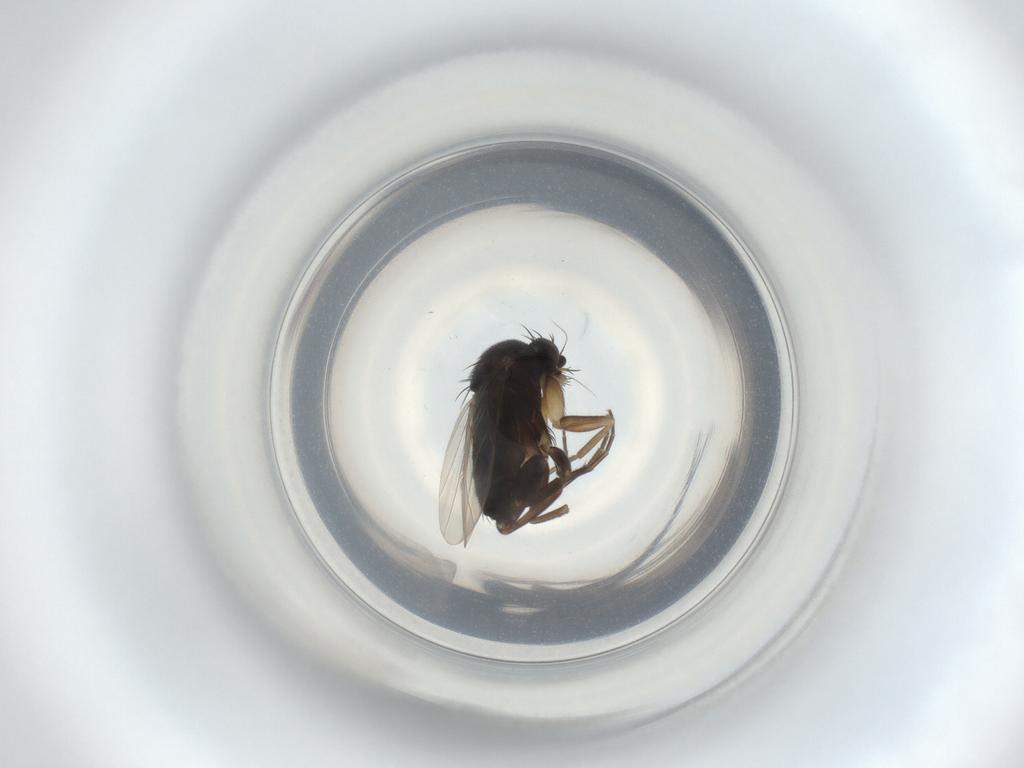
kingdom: Animalia
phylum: Arthropoda
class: Insecta
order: Diptera
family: Phoridae
